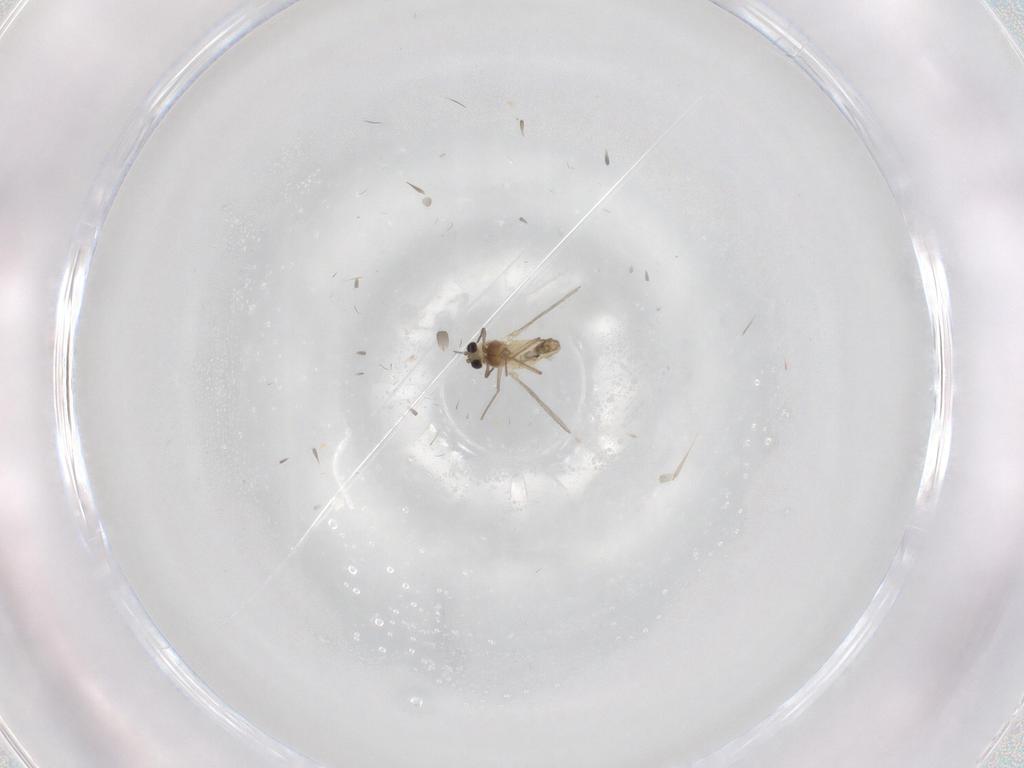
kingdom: Animalia
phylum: Arthropoda
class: Insecta
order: Diptera
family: Chironomidae
